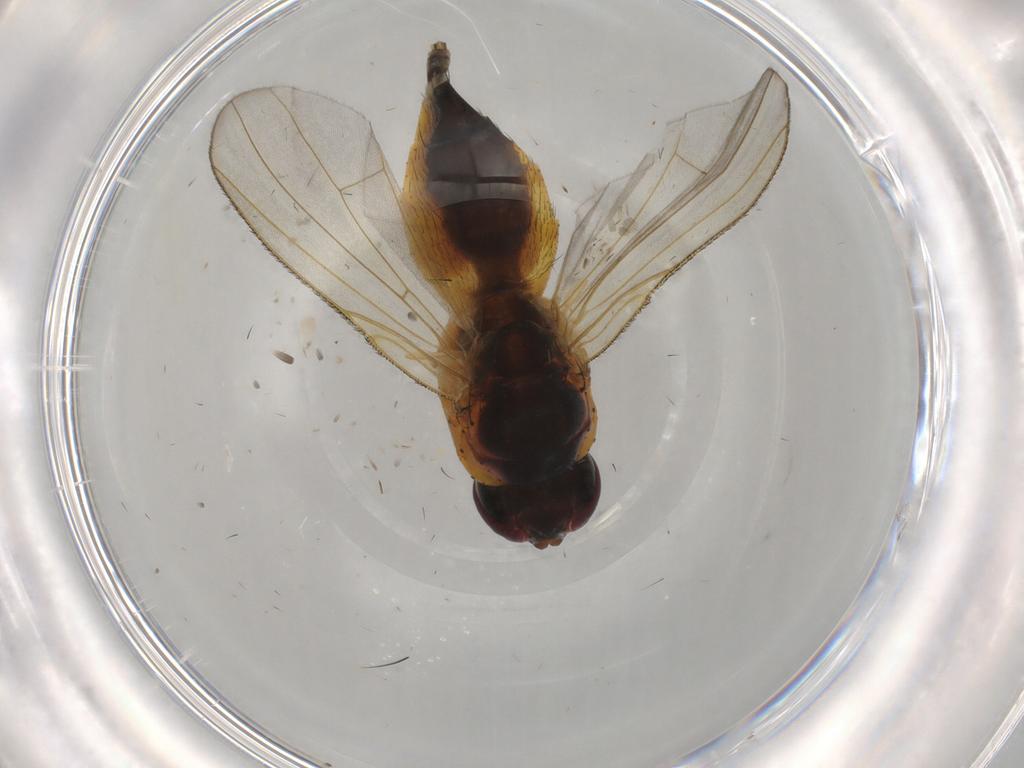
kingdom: Animalia
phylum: Arthropoda
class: Insecta
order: Diptera
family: Muscidae
